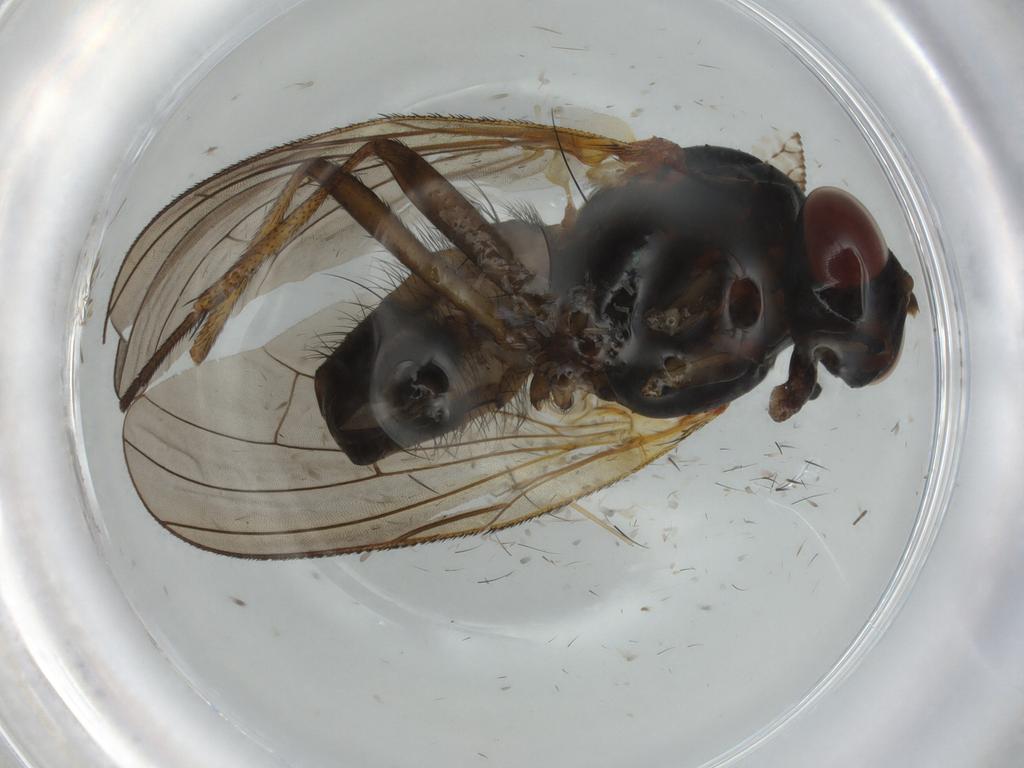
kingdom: Animalia
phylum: Arthropoda
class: Insecta
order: Diptera
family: Anthomyiidae
